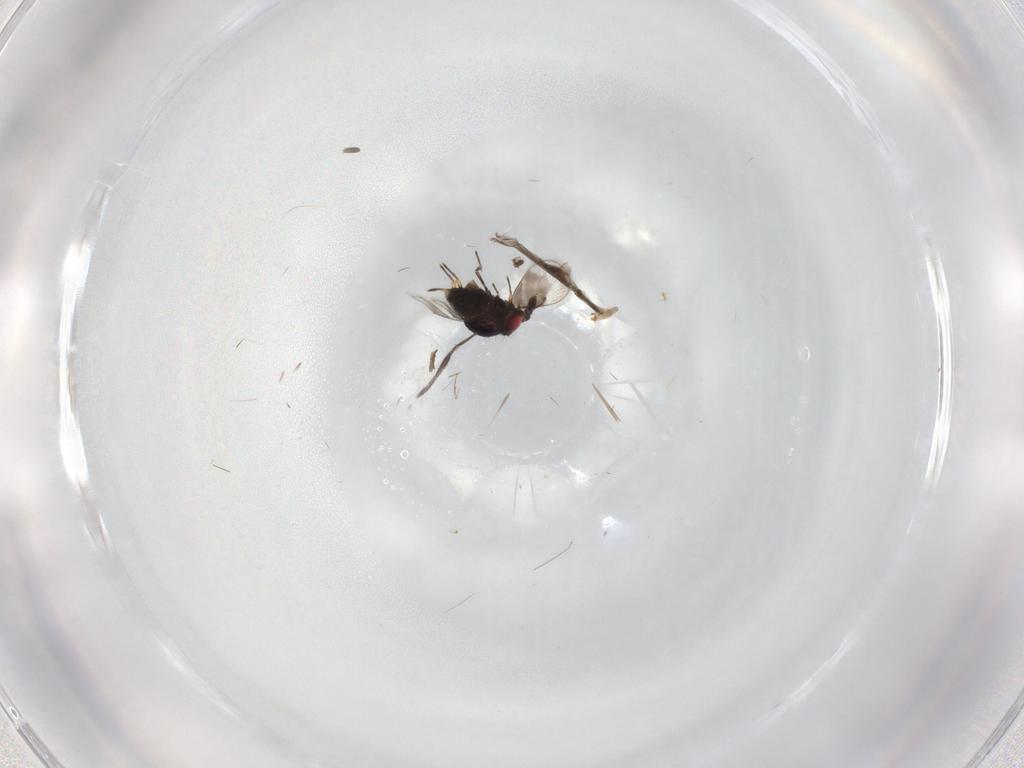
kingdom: Animalia
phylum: Arthropoda
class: Insecta
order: Hymenoptera
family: Eulophidae
